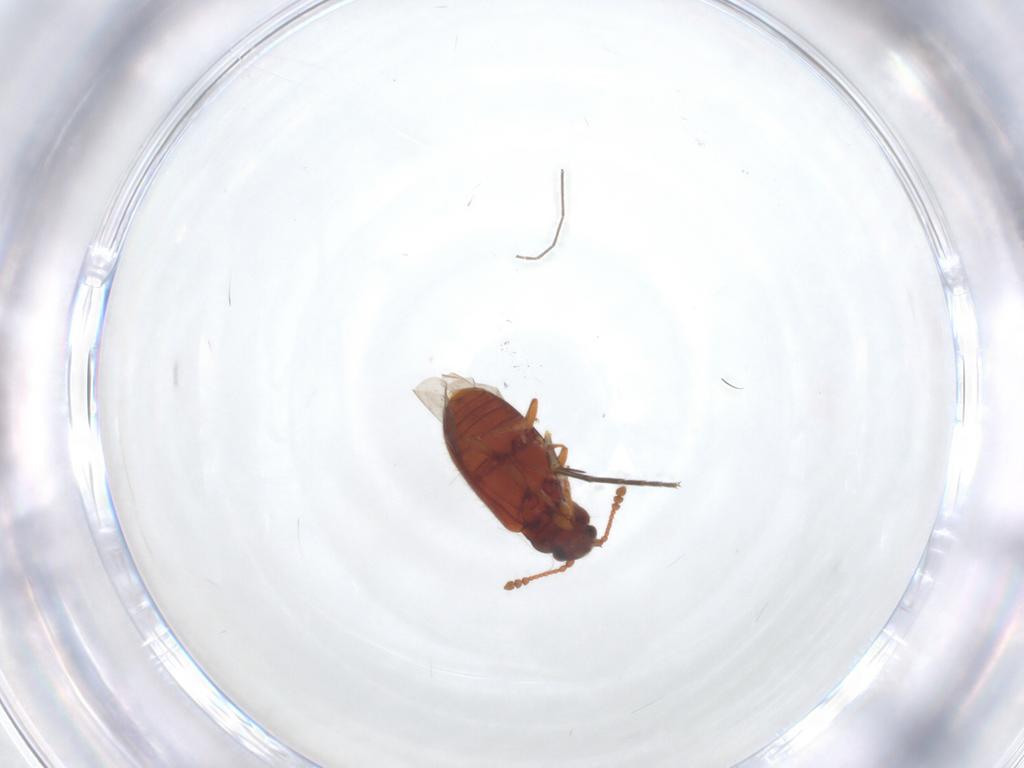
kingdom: Animalia
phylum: Arthropoda
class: Insecta
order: Coleoptera
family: Cryptophagidae
